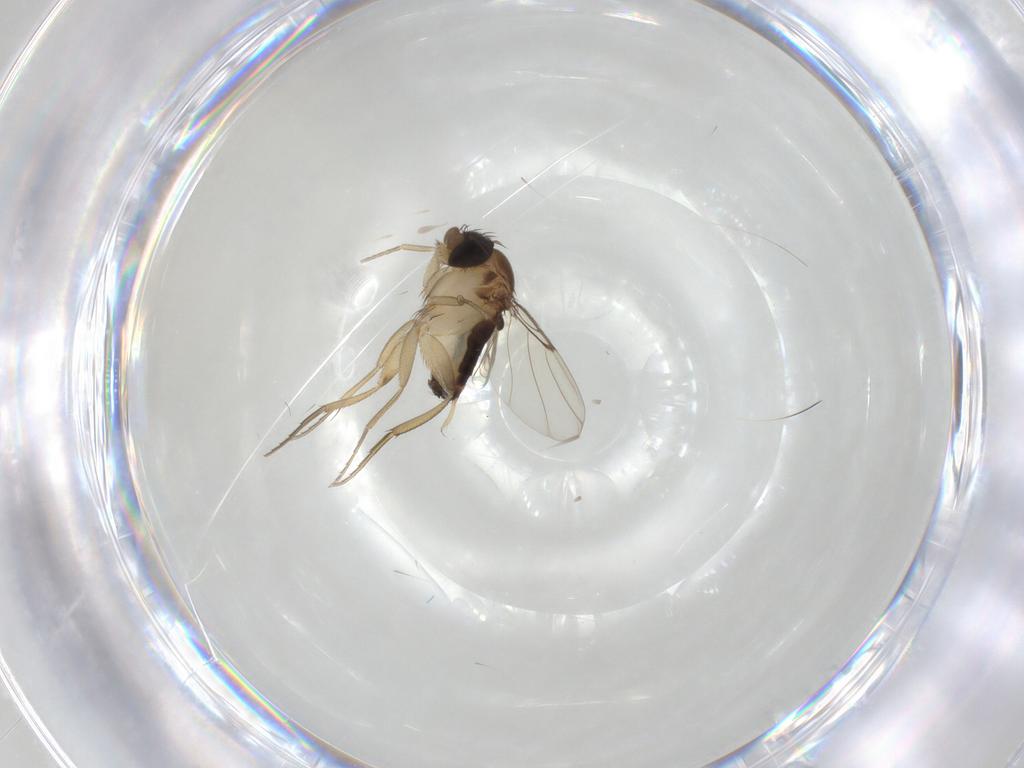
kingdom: Animalia
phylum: Arthropoda
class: Insecta
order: Diptera
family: Phoridae
